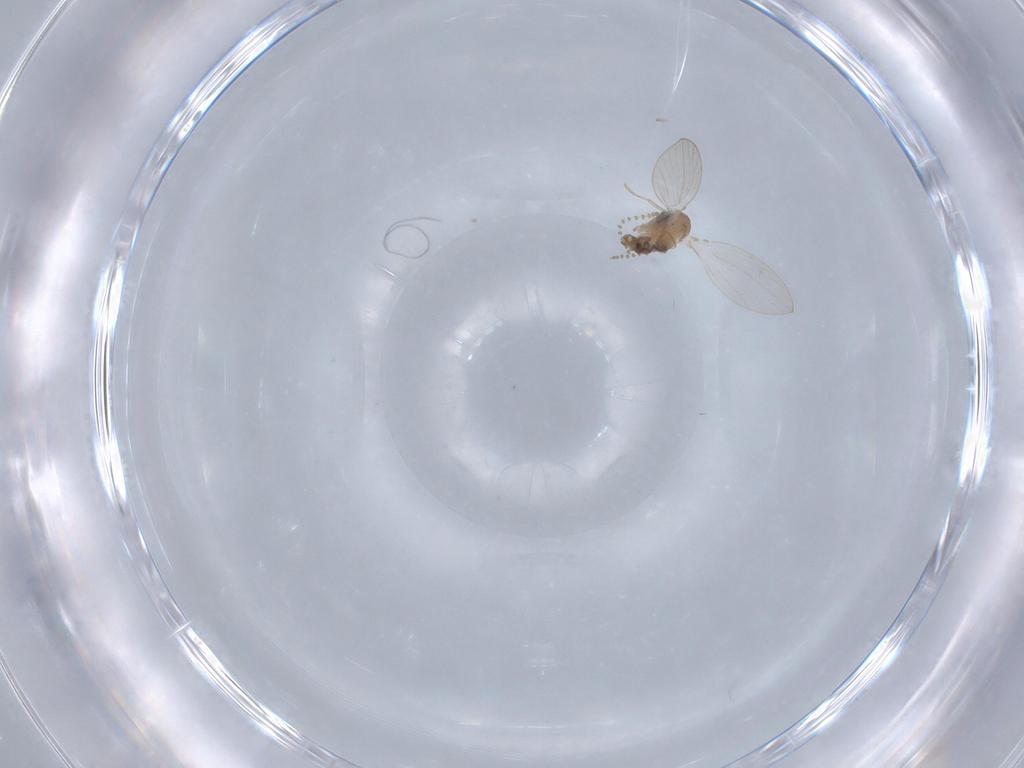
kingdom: Animalia
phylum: Arthropoda
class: Insecta
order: Diptera
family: Psychodidae
